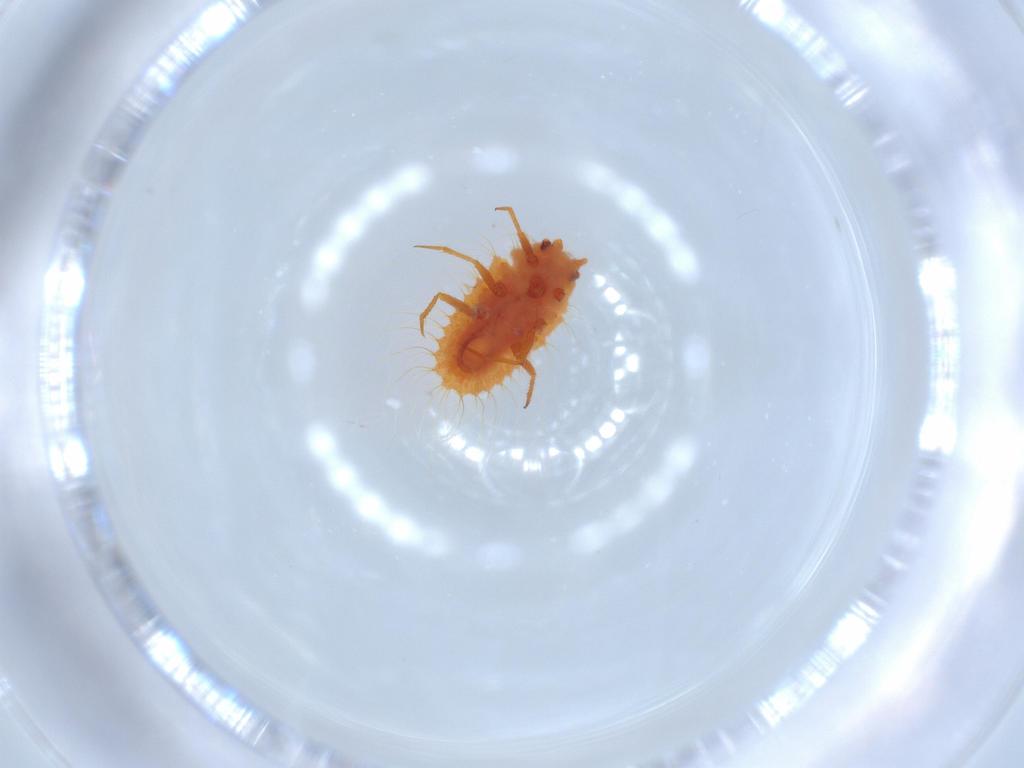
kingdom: Animalia
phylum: Arthropoda
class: Insecta
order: Hemiptera
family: Coccoidea_incertae_sedis
